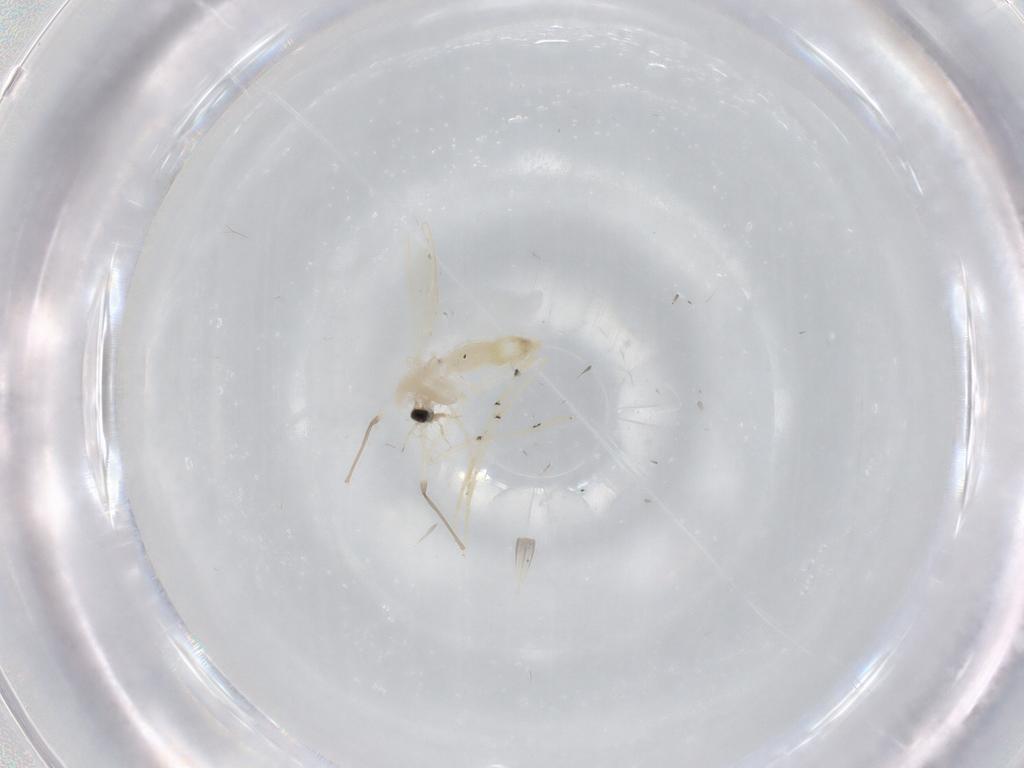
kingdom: Animalia
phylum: Arthropoda
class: Insecta
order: Diptera
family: Chironomidae
